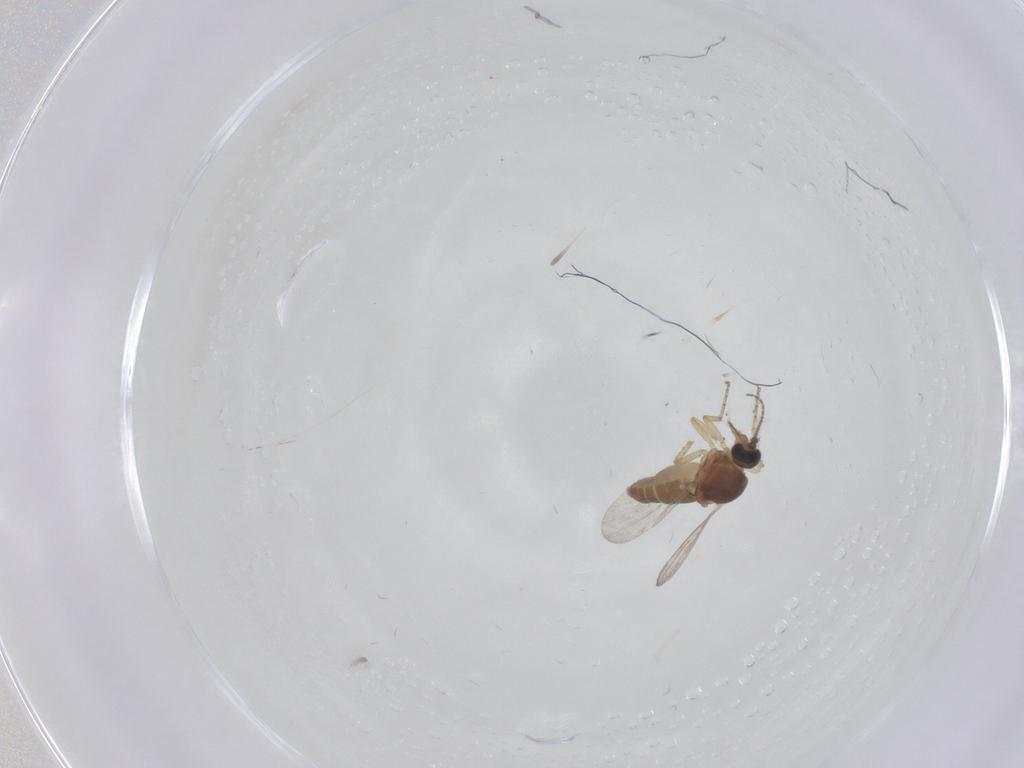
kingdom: Animalia
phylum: Arthropoda
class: Insecta
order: Diptera
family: Ceratopogonidae
